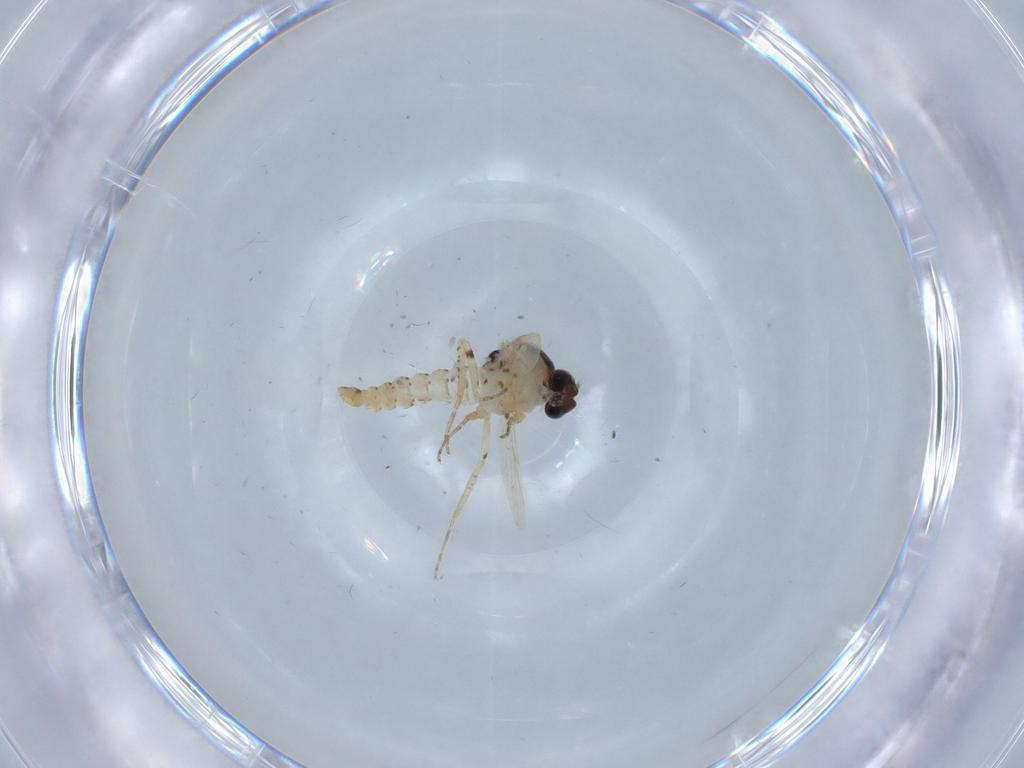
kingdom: Animalia
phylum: Arthropoda
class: Insecta
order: Diptera
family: Ceratopogonidae
